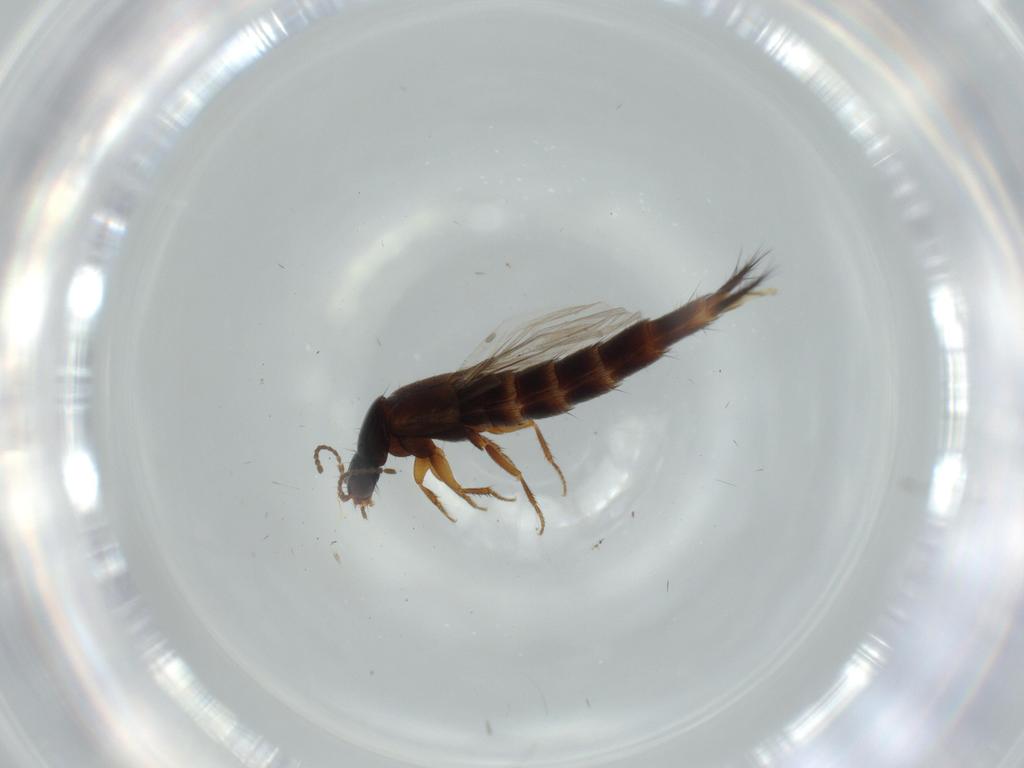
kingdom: Animalia
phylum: Arthropoda
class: Insecta
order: Coleoptera
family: Staphylinidae
